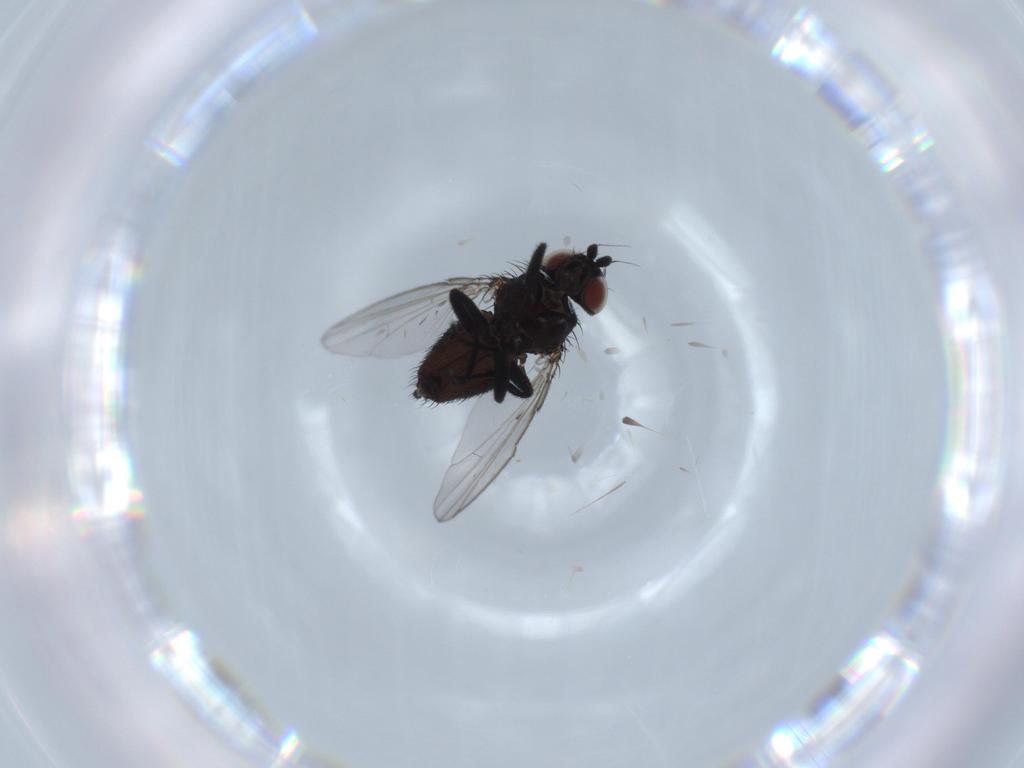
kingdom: Animalia
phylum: Arthropoda
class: Insecta
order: Diptera
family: Milichiidae
